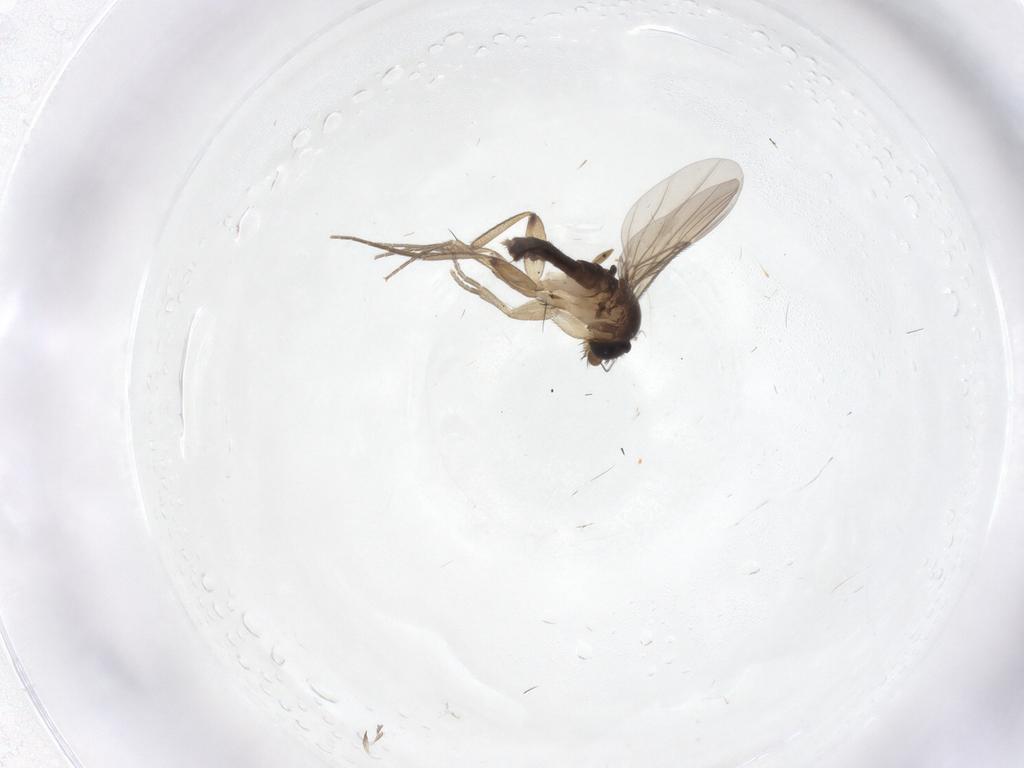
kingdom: Animalia
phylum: Arthropoda
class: Insecta
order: Diptera
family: Phoridae
